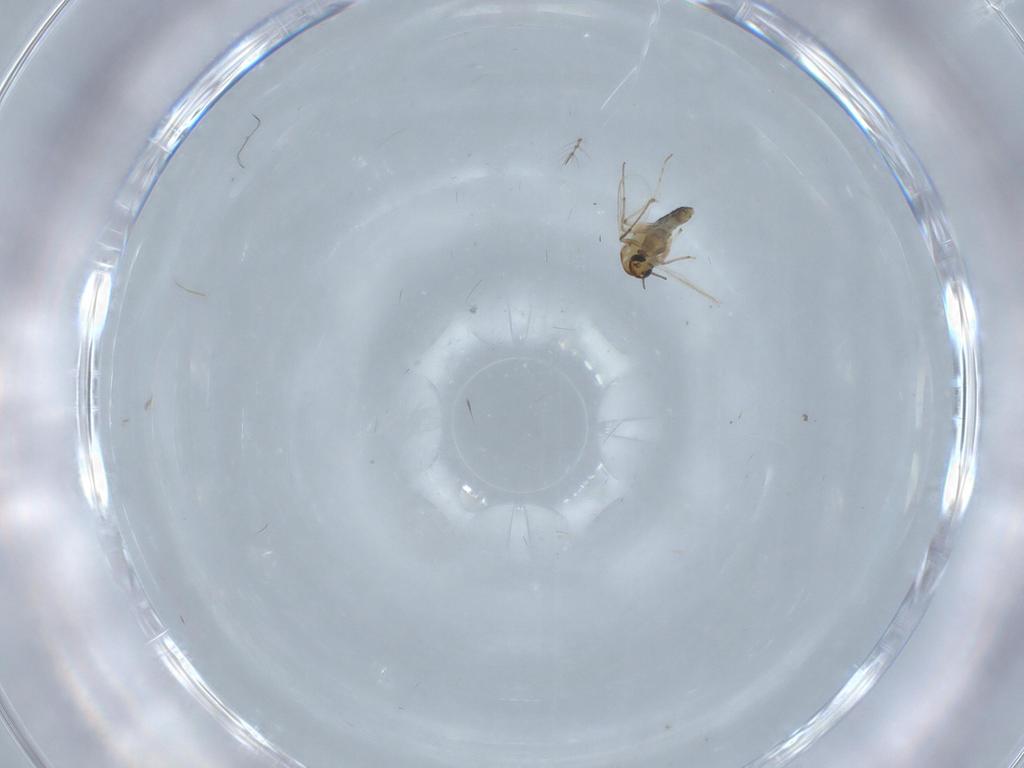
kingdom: Animalia
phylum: Arthropoda
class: Insecta
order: Diptera
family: Chironomidae
